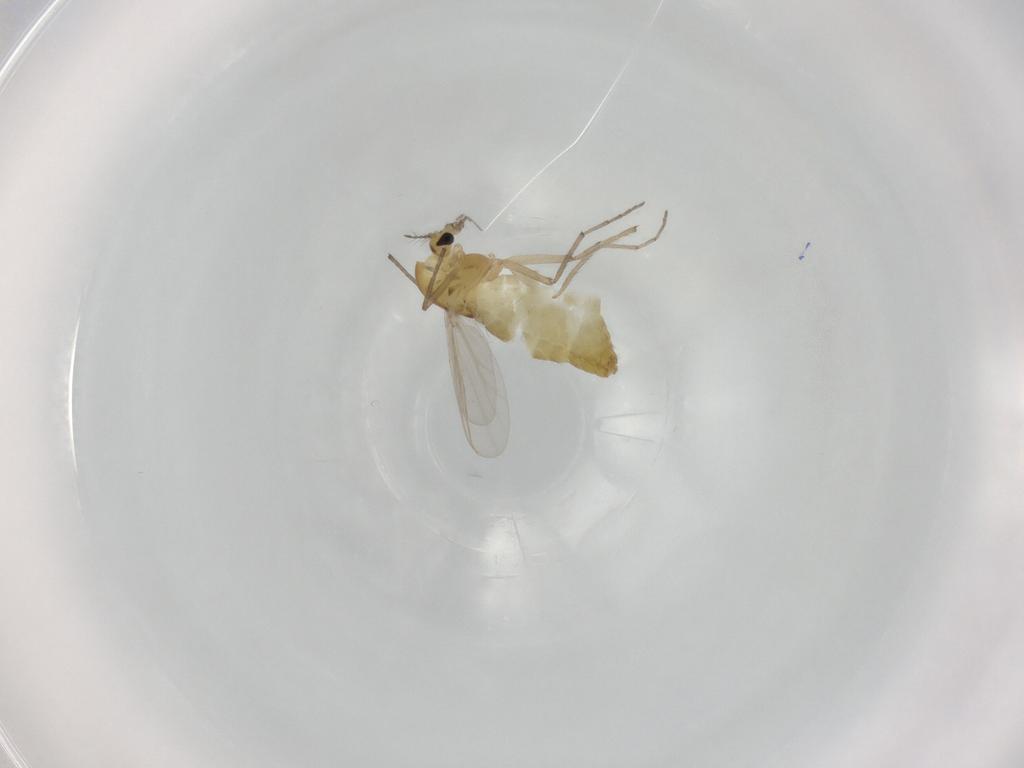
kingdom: Animalia
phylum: Arthropoda
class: Insecta
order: Diptera
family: Chironomidae
